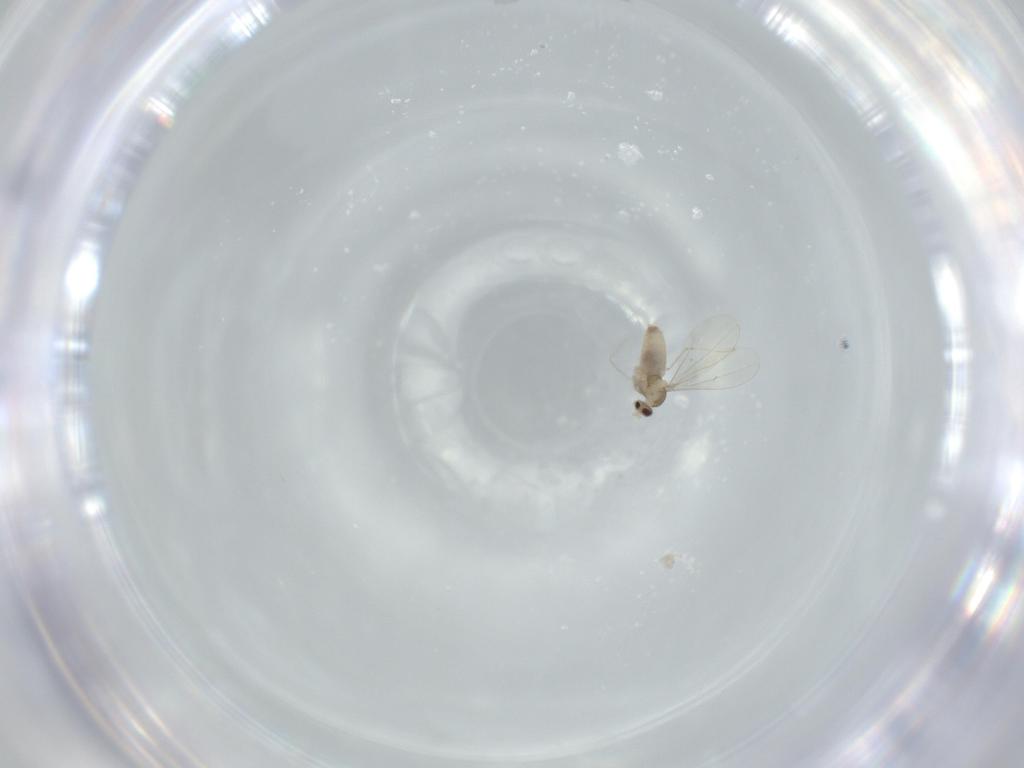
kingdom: Animalia
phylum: Arthropoda
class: Insecta
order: Diptera
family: Cecidomyiidae
